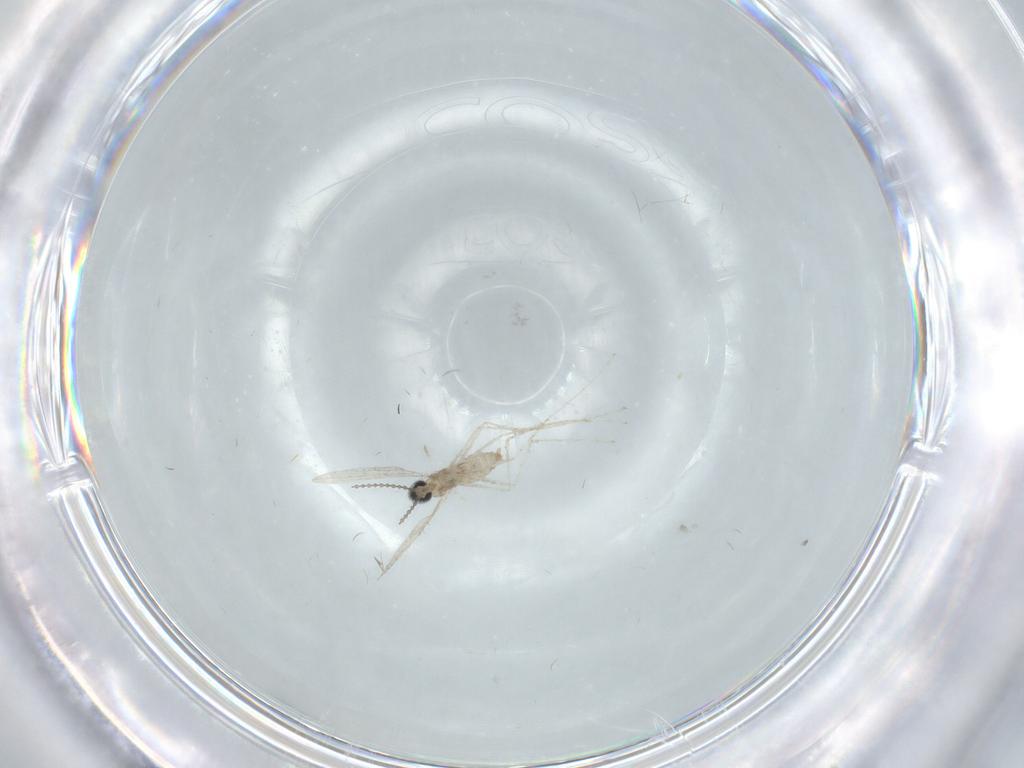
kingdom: Animalia
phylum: Arthropoda
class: Insecta
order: Diptera
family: Cecidomyiidae
